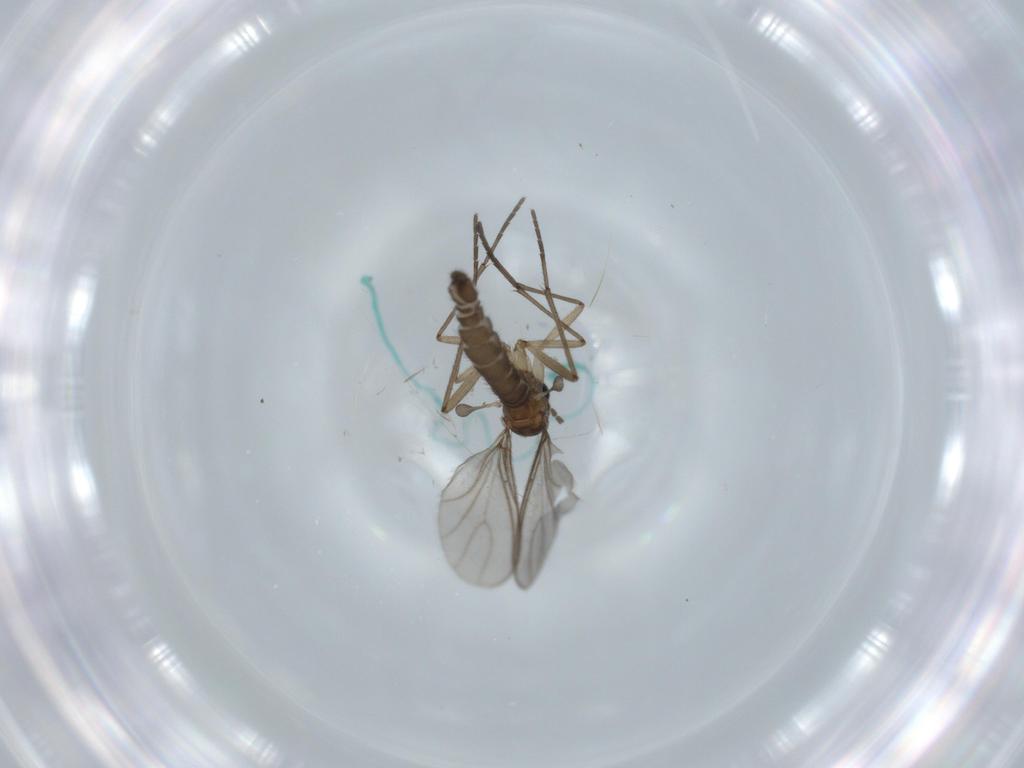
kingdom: Animalia
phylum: Arthropoda
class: Insecta
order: Diptera
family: Sciaridae
